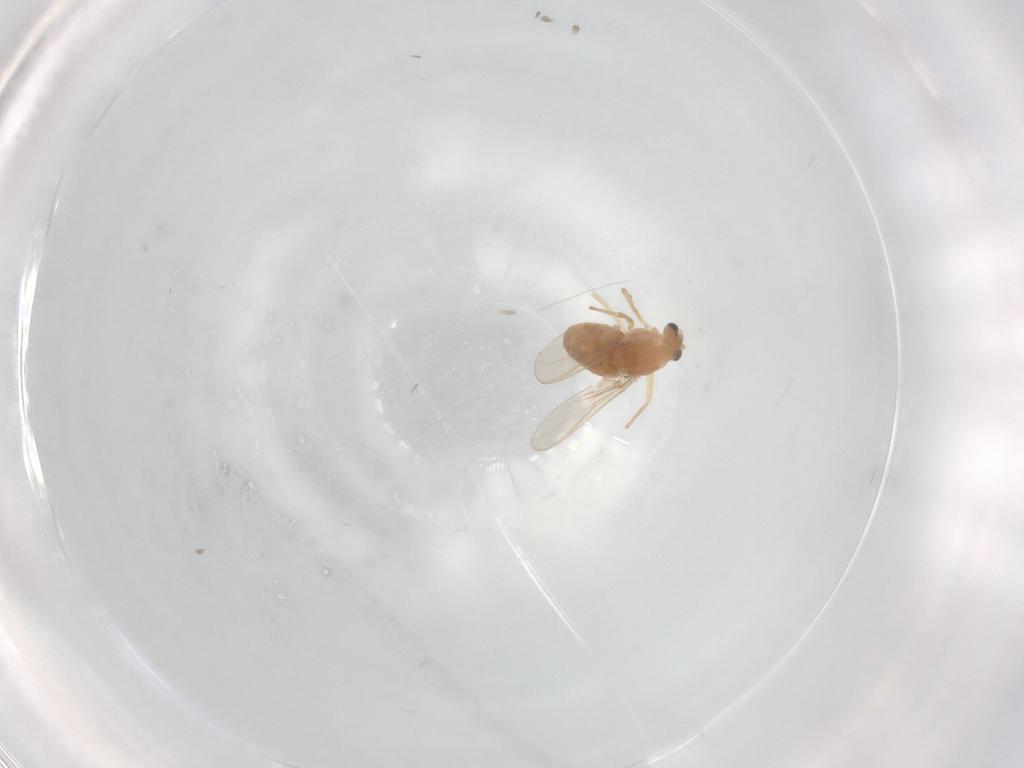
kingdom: Animalia
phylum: Arthropoda
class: Insecta
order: Diptera
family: Chironomidae
